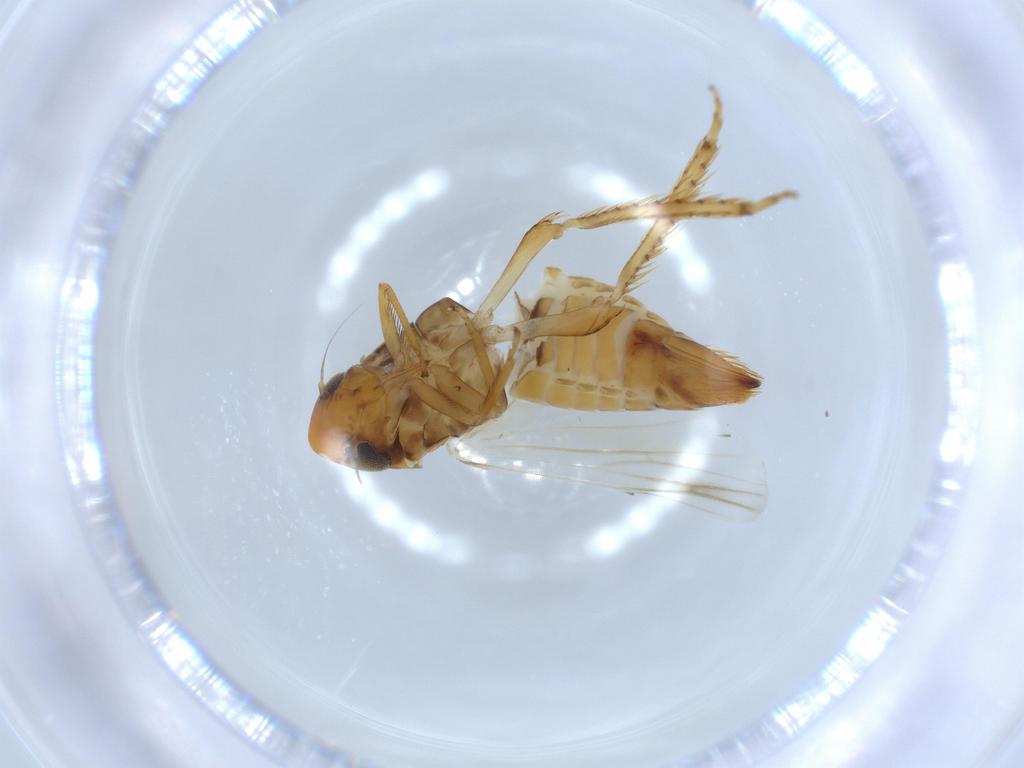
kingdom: Animalia
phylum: Arthropoda
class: Insecta
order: Hemiptera
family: Cicadellidae
